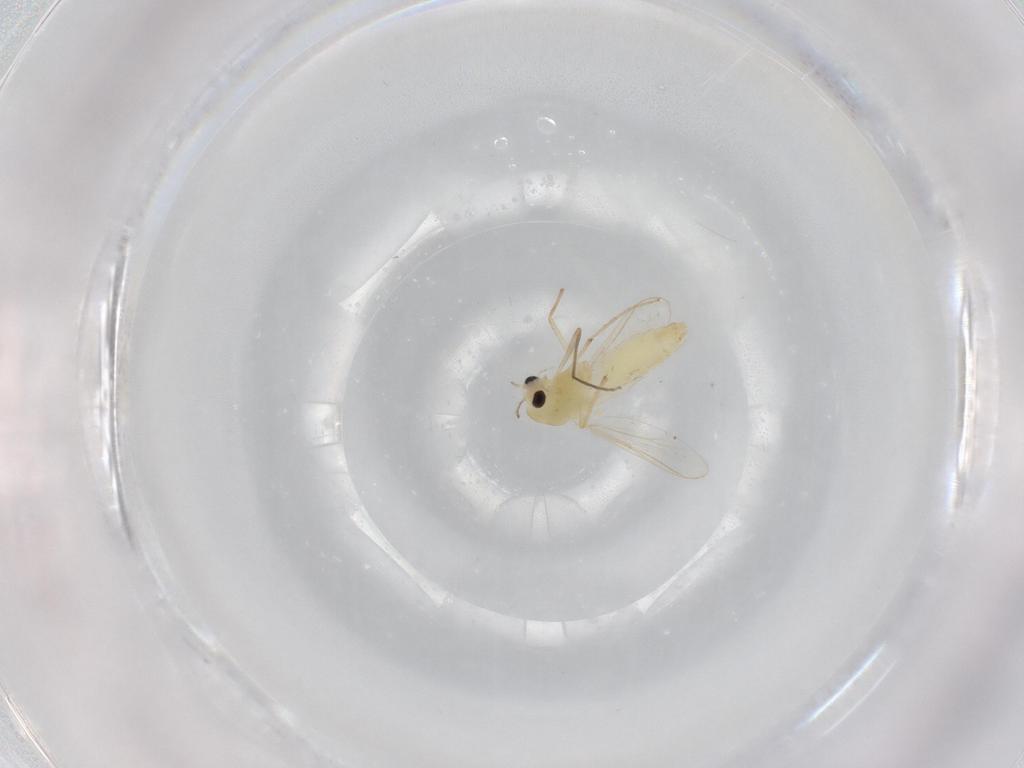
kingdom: Animalia
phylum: Arthropoda
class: Insecta
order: Diptera
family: Chironomidae
